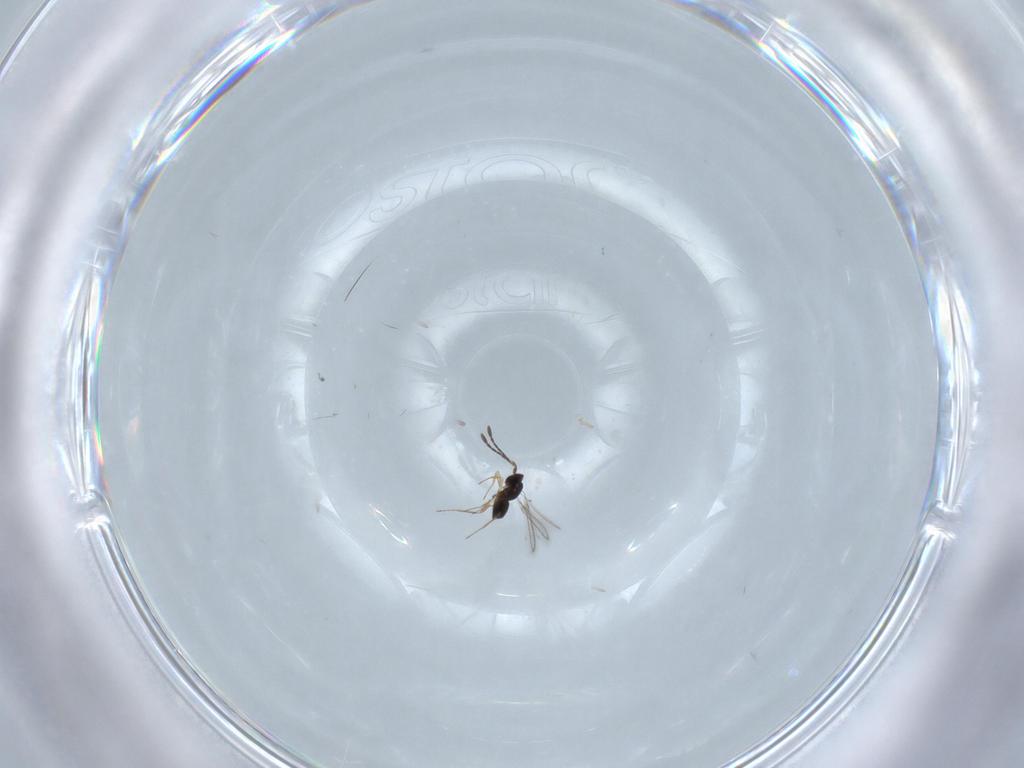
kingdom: Animalia
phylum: Arthropoda
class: Insecta
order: Hymenoptera
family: Mymaridae
